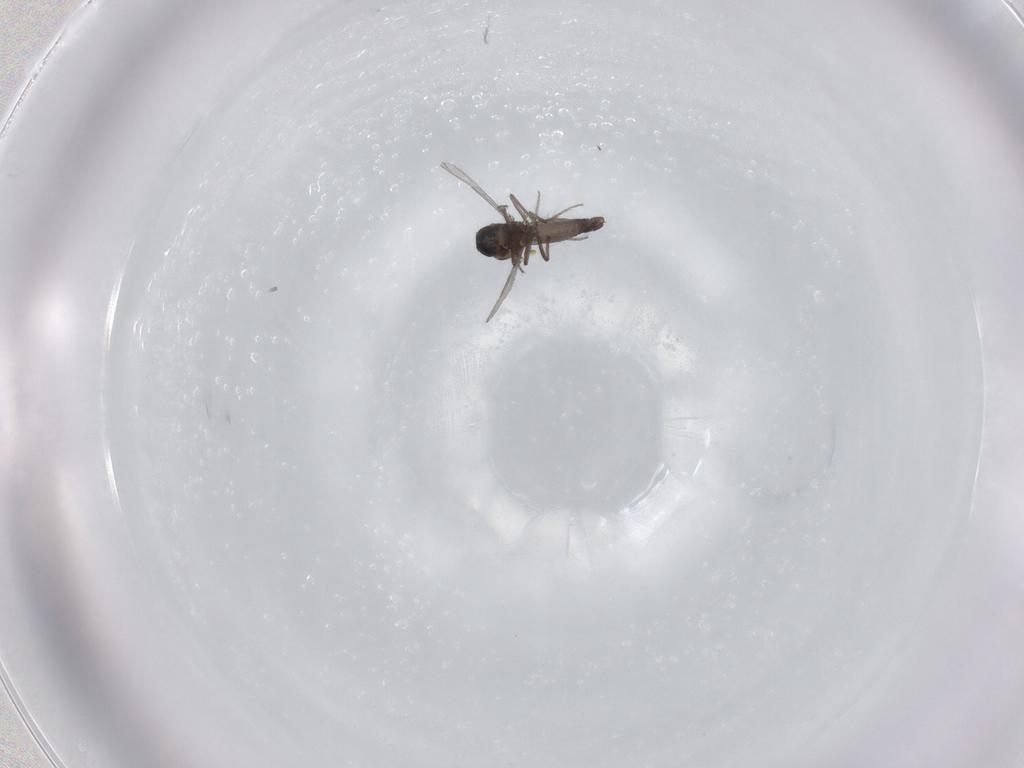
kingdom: Animalia
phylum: Arthropoda
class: Insecta
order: Diptera
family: Ceratopogonidae
